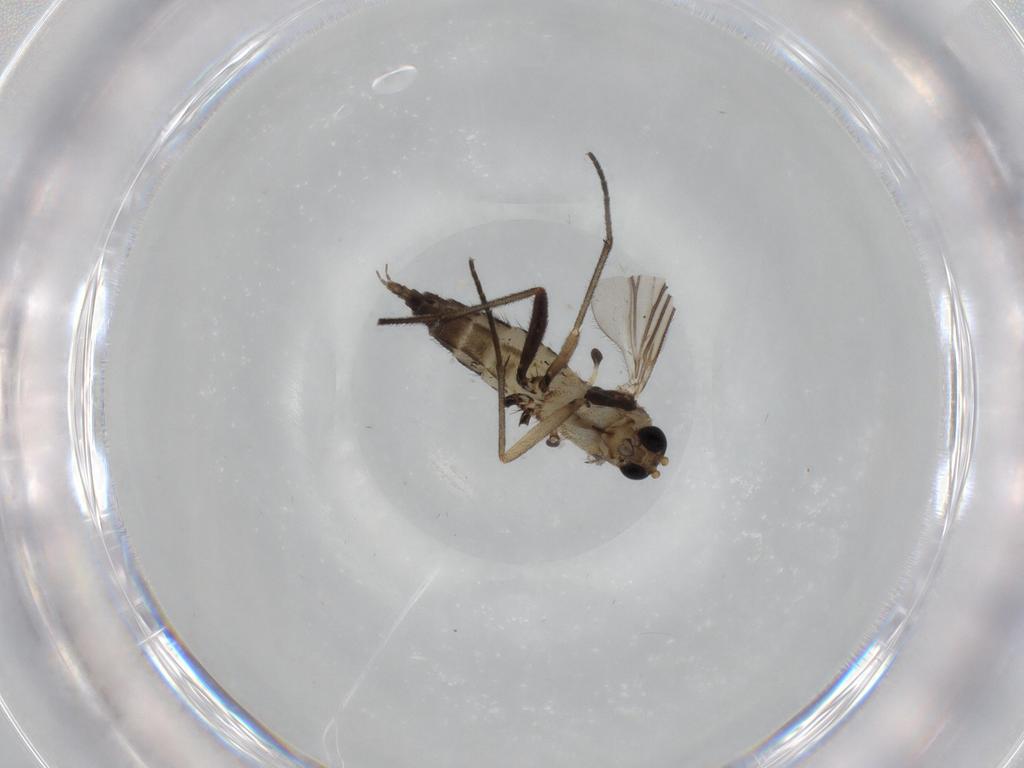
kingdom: Animalia
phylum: Arthropoda
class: Insecta
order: Diptera
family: Sciaridae
